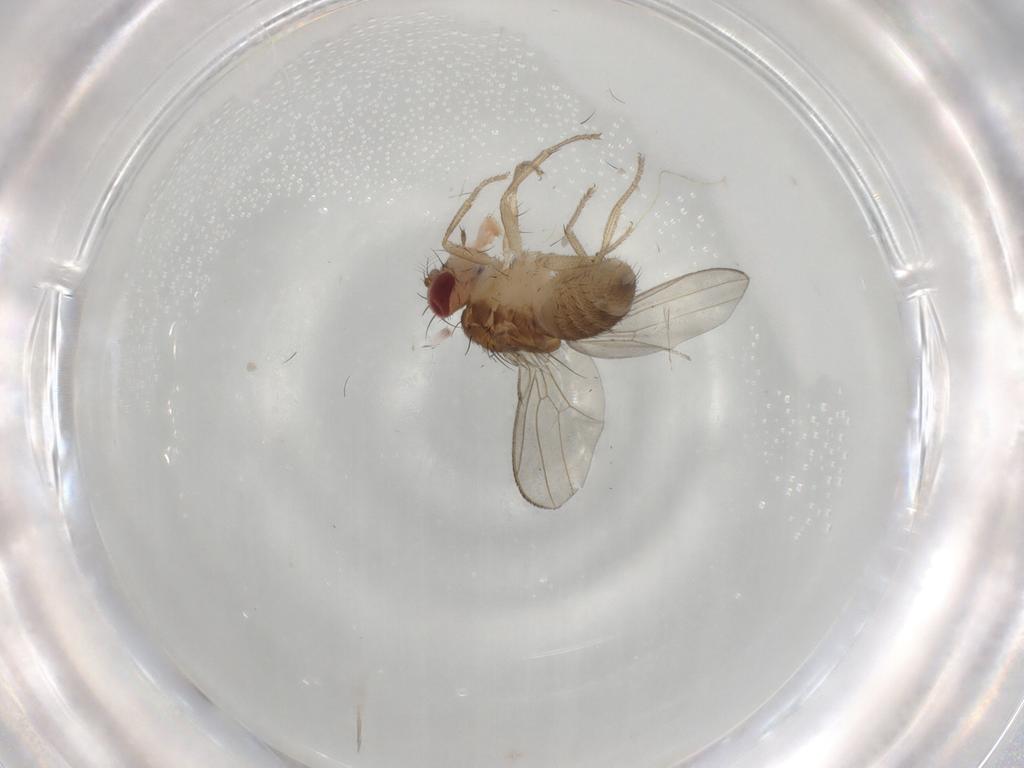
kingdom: Animalia
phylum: Arthropoda
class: Insecta
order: Diptera
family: Drosophilidae
